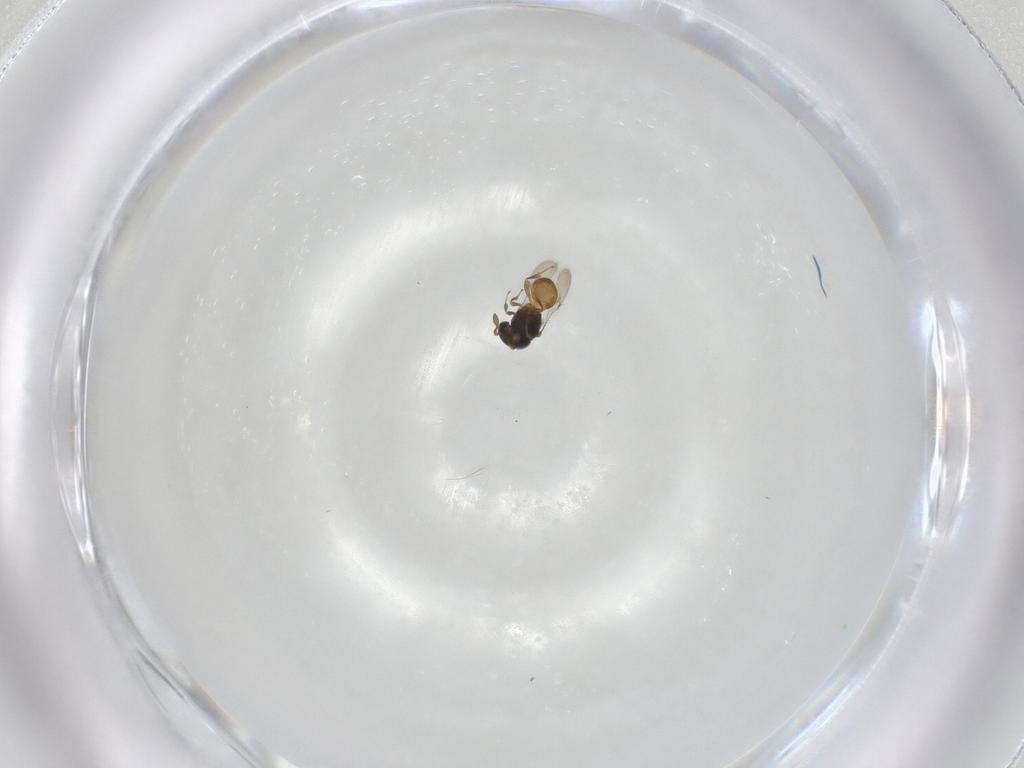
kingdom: Animalia
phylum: Arthropoda
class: Insecta
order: Hymenoptera
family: Scelionidae
